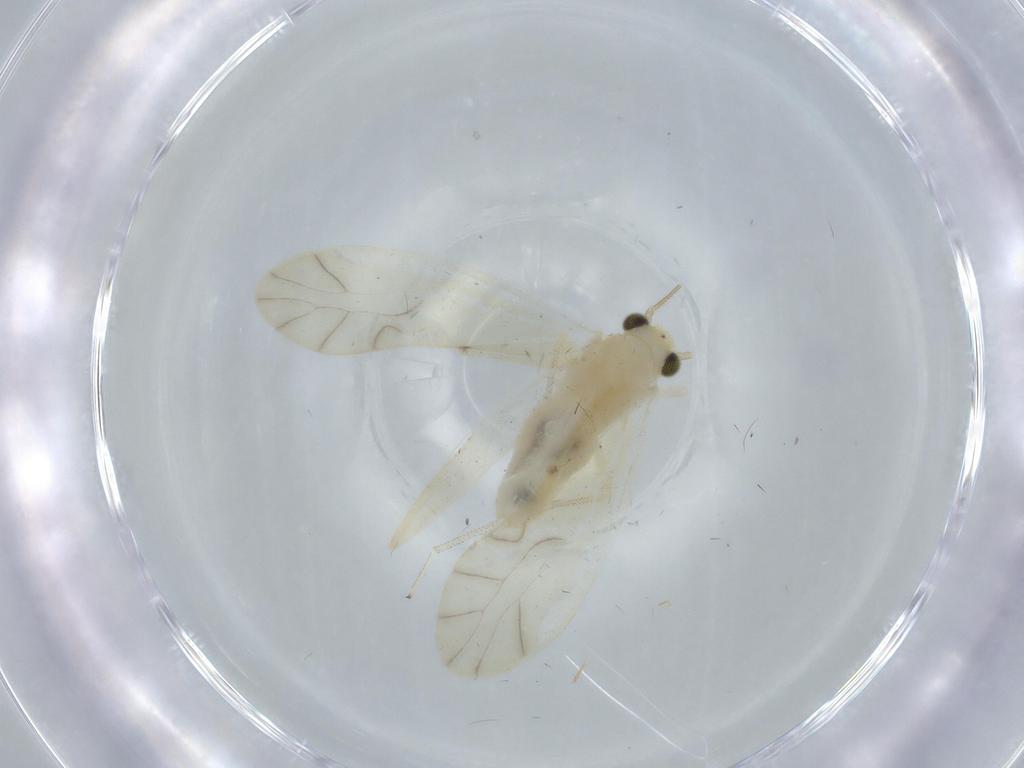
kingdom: Animalia
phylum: Arthropoda
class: Insecta
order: Psocodea
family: Caeciliusidae
